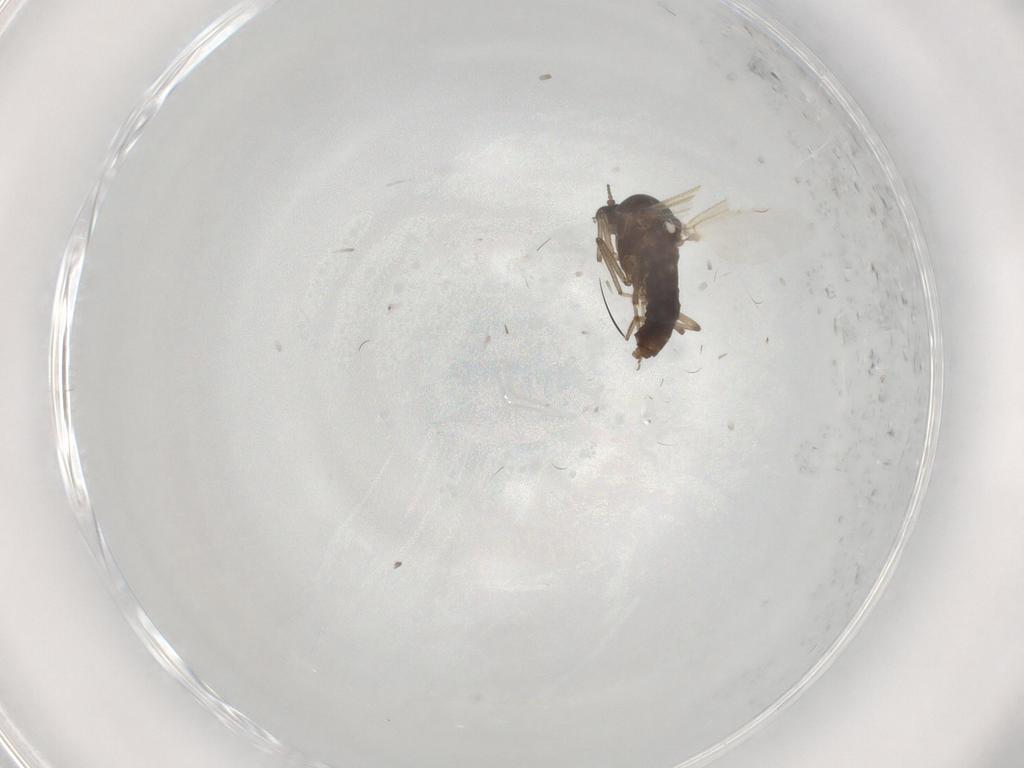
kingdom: Animalia
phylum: Arthropoda
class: Insecta
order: Diptera
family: Ceratopogonidae
